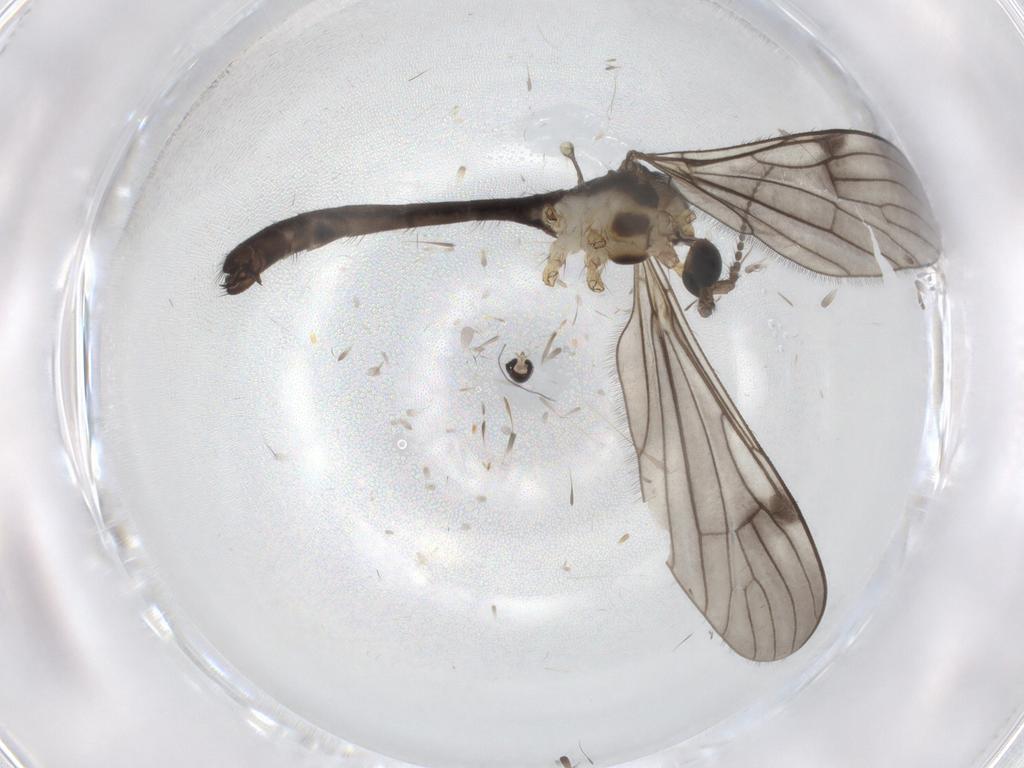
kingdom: Animalia
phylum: Arthropoda
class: Insecta
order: Diptera
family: Cecidomyiidae
